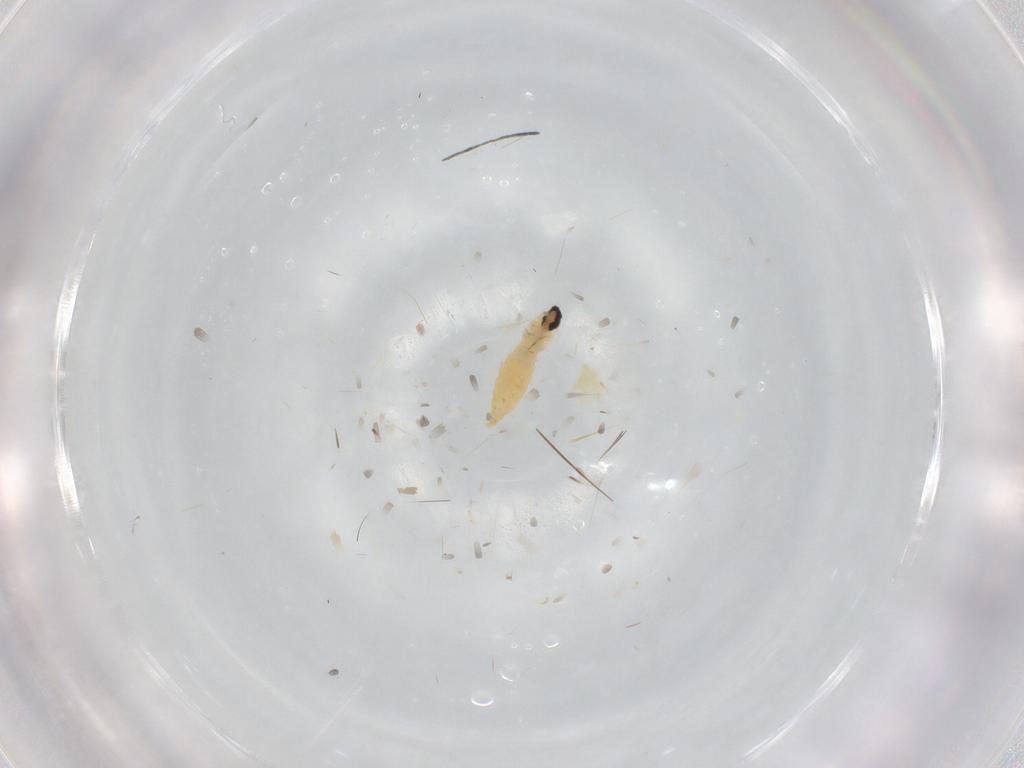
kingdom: Animalia
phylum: Arthropoda
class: Insecta
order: Diptera
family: Cecidomyiidae
